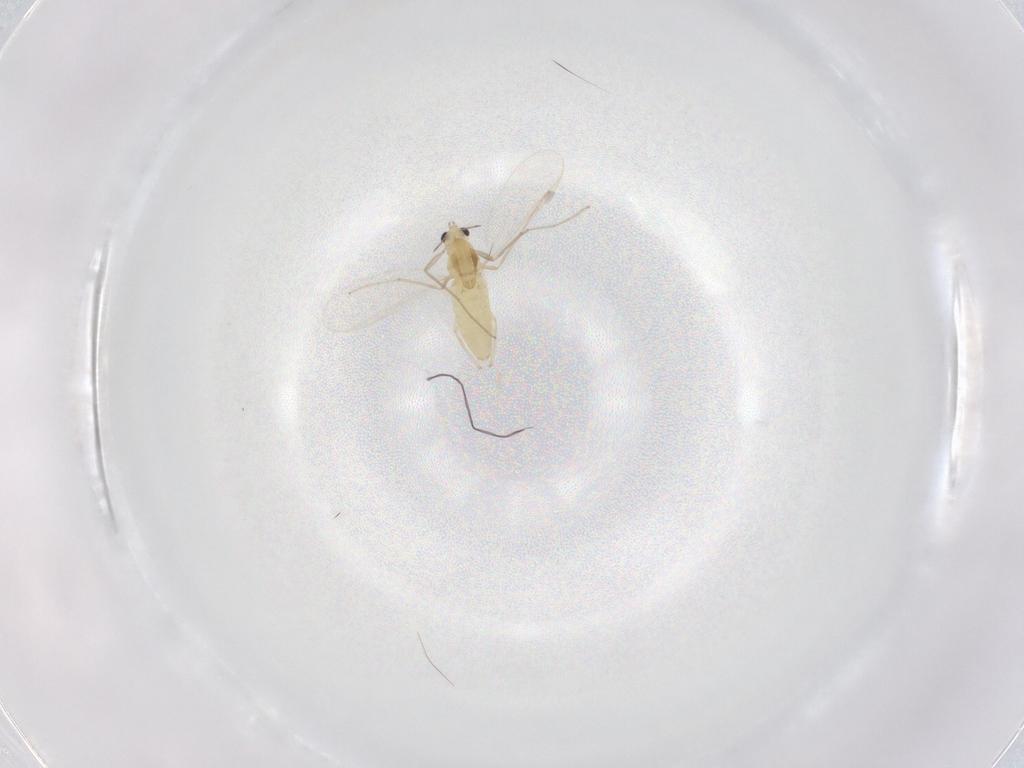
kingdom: Animalia
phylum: Arthropoda
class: Insecta
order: Diptera
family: Chironomidae
